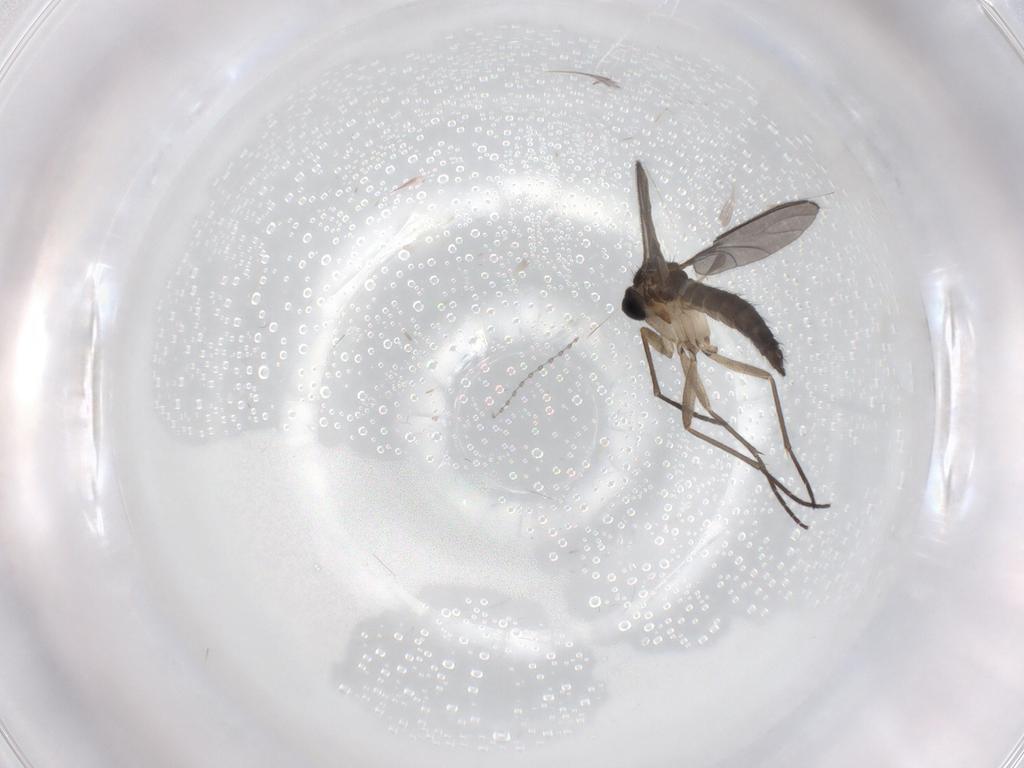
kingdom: Animalia
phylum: Arthropoda
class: Insecta
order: Diptera
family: Sciaridae
